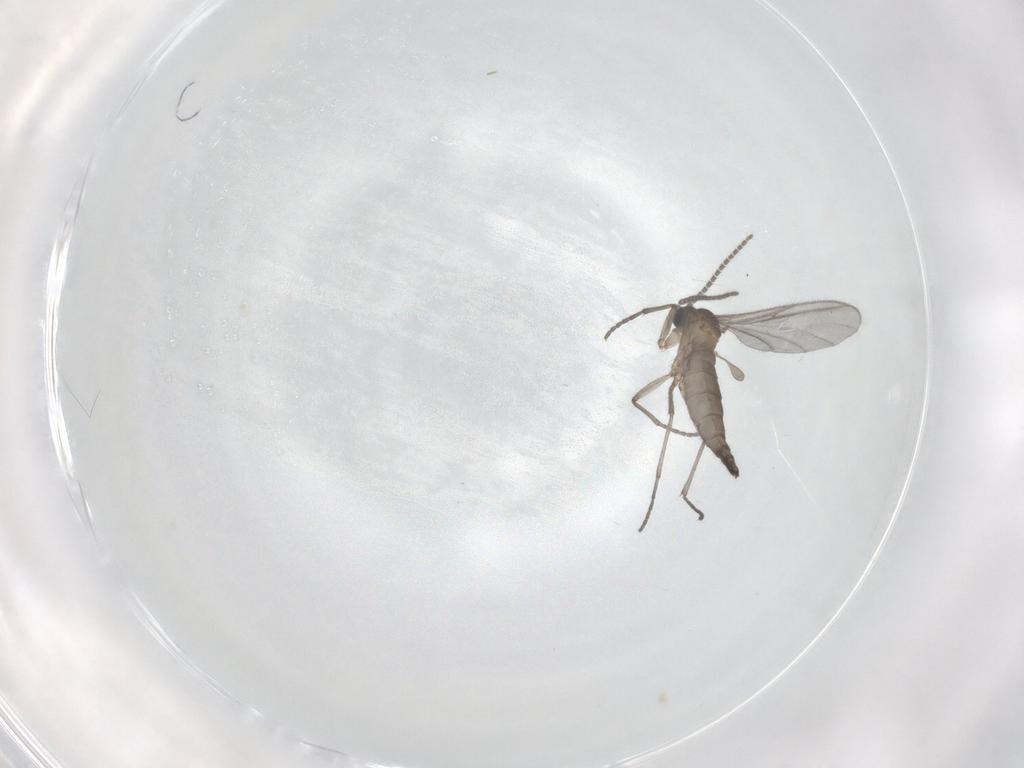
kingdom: Animalia
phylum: Arthropoda
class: Insecta
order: Diptera
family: Sciaridae
